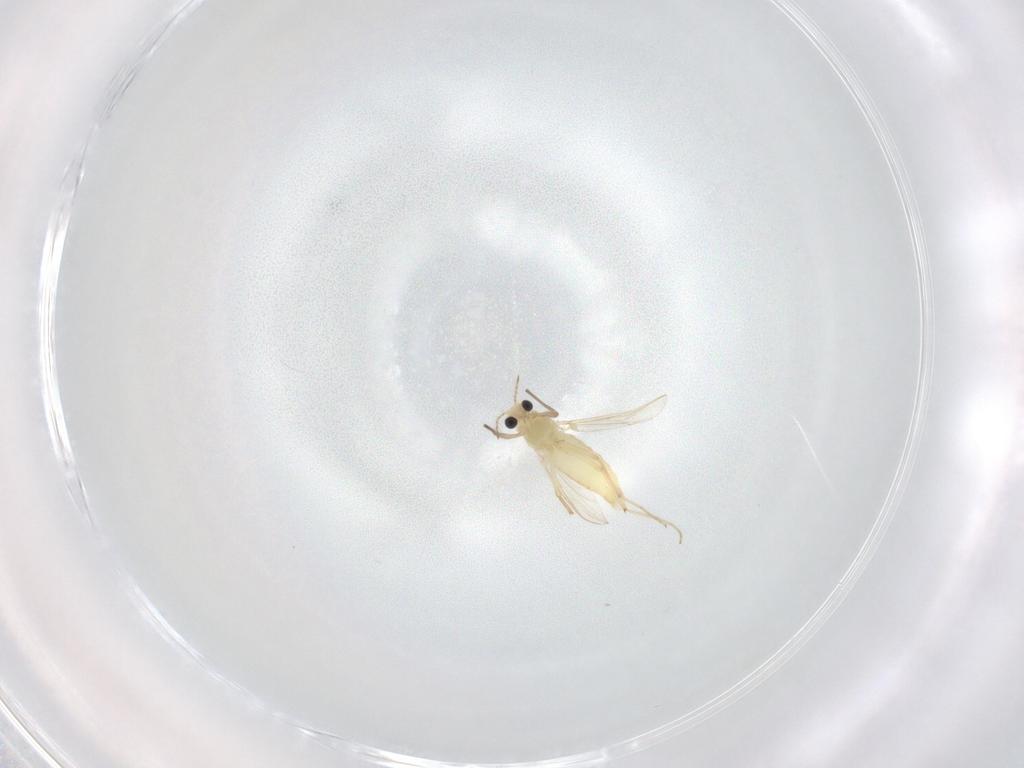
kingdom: Animalia
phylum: Arthropoda
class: Insecta
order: Diptera
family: Chironomidae
